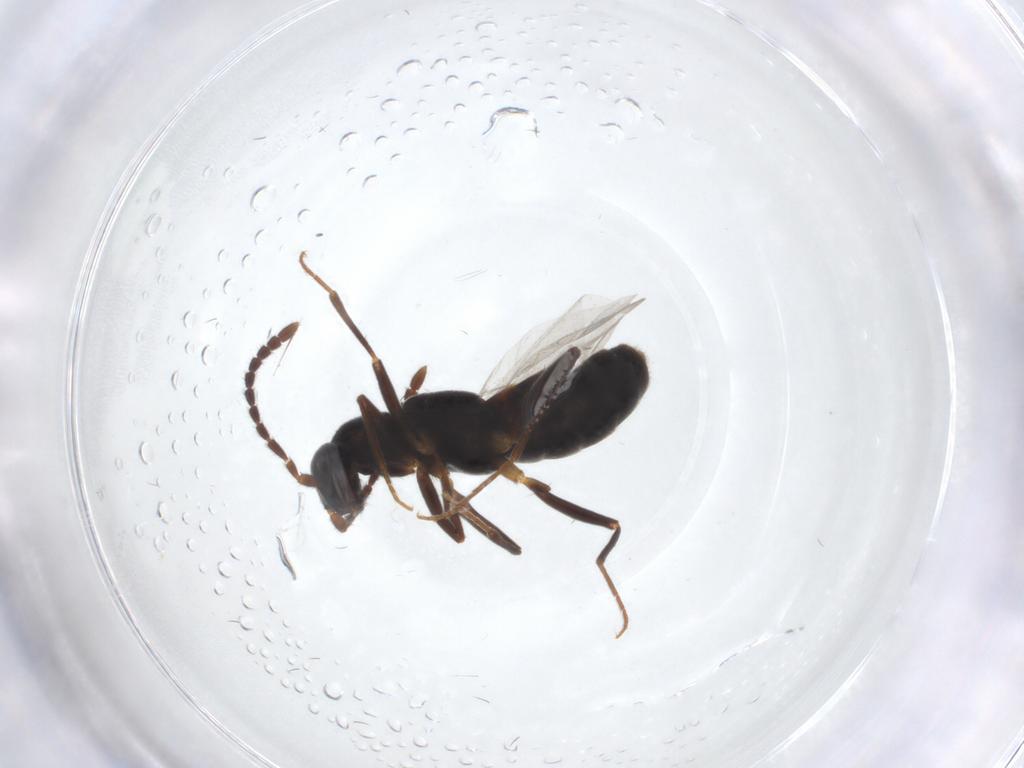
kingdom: Animalia
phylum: Arthropoda
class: Insecta
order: Coleoptera
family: Staphylinidae
